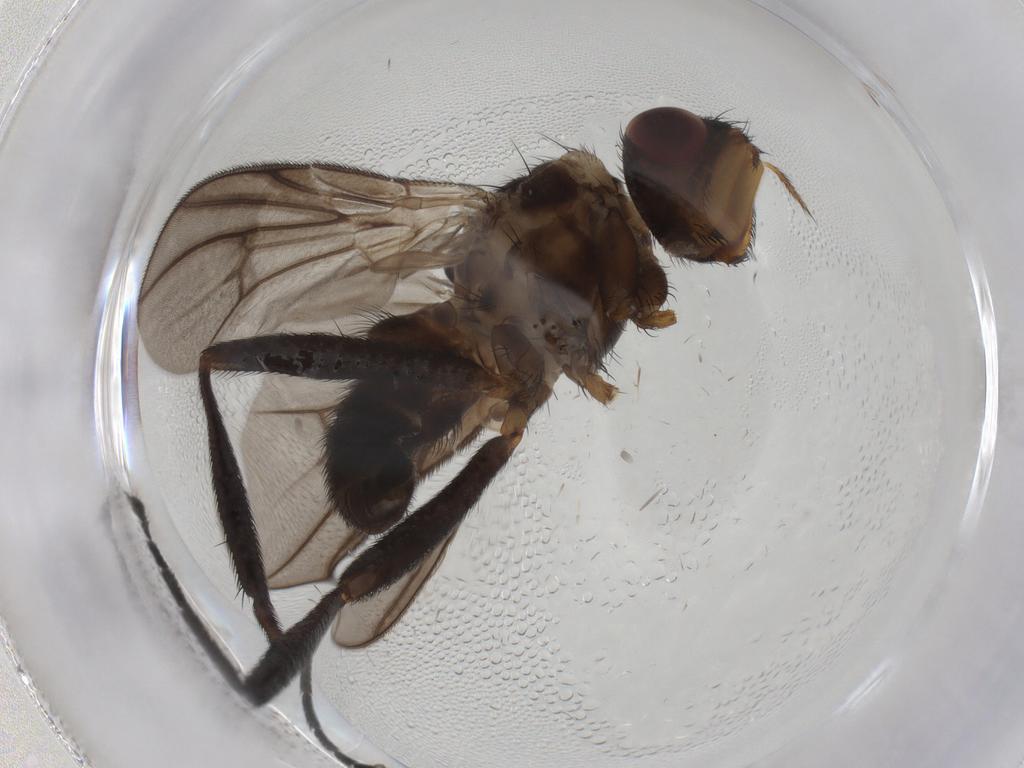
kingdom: Animalia
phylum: Arthropoda
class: Insecta
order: Diptera
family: Calliphoridae
